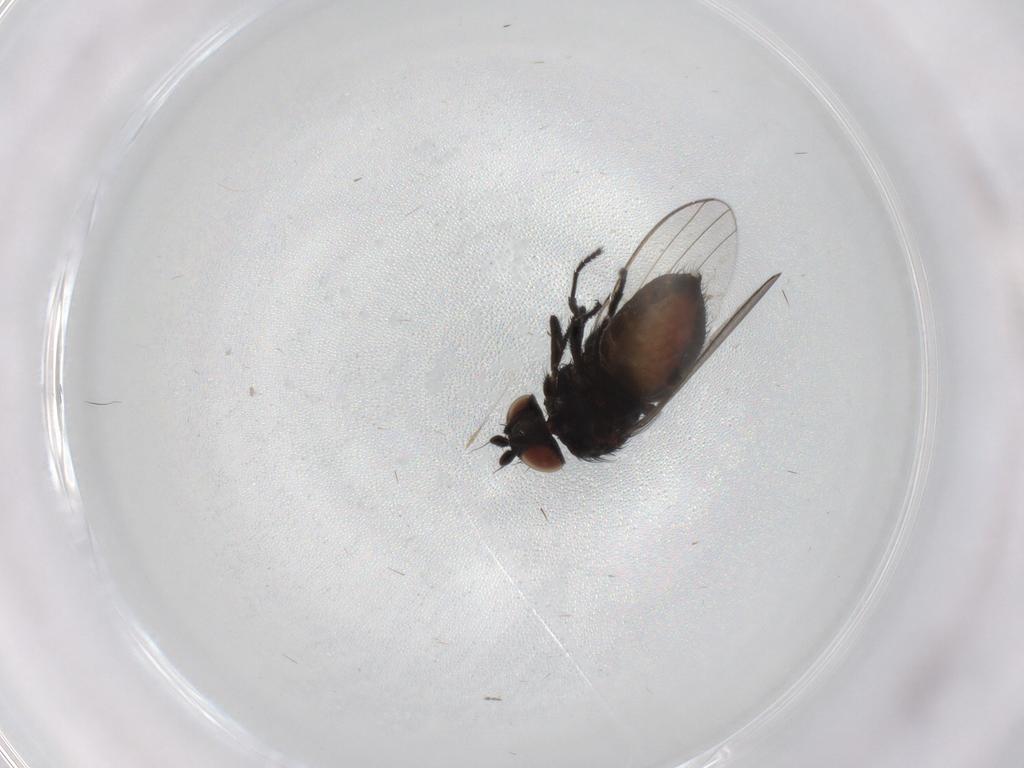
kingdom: Animalia
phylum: Arthropoda
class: Insecta
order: Diptera
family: Milichiidae
